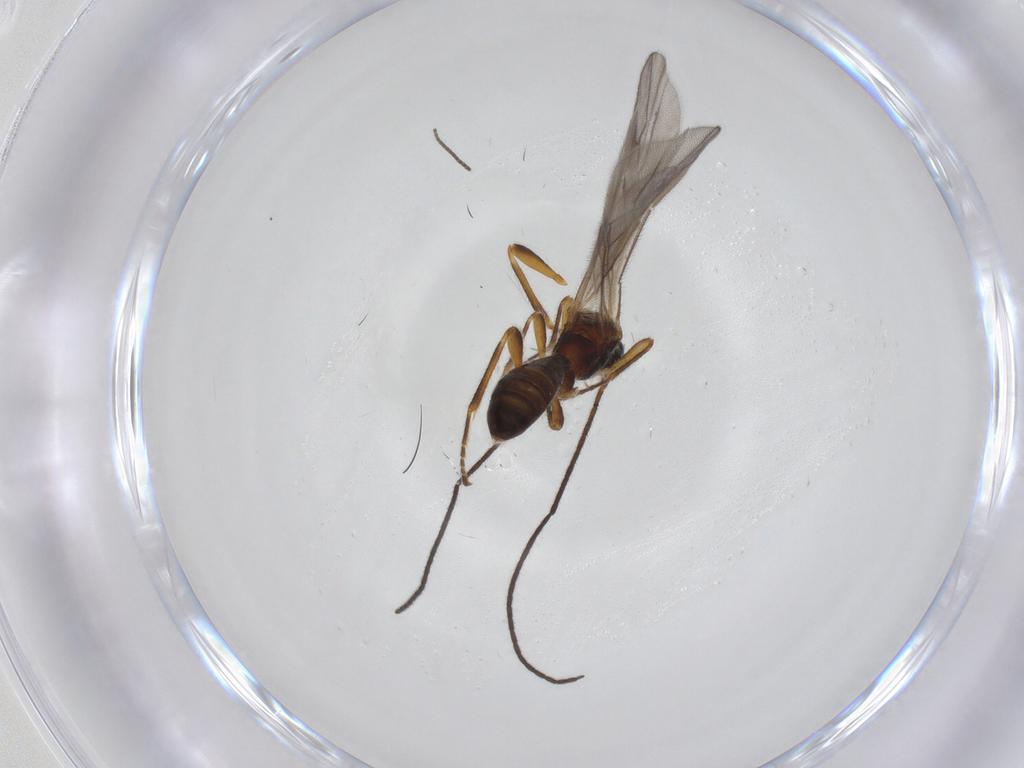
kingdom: Animalia
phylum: Arthropoda
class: Insecta
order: Hymenoptera
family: Braconidae
